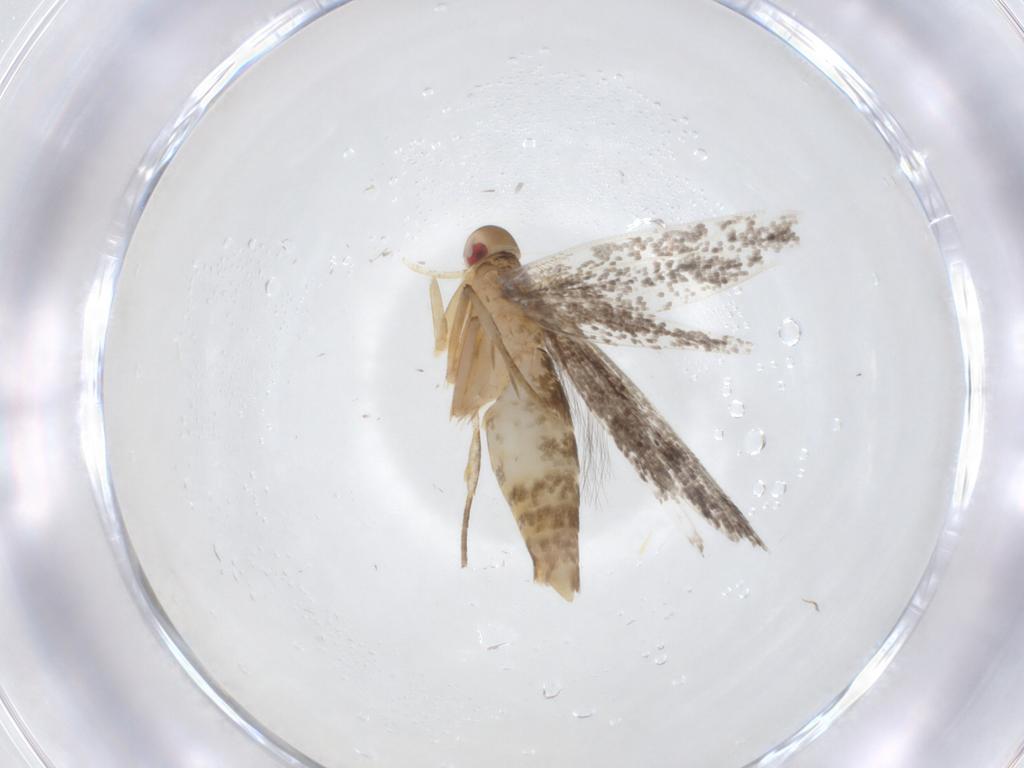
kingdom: Animalia
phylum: Arthropoda
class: Insecta
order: Lepidoptera
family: Cosmopterigidae
